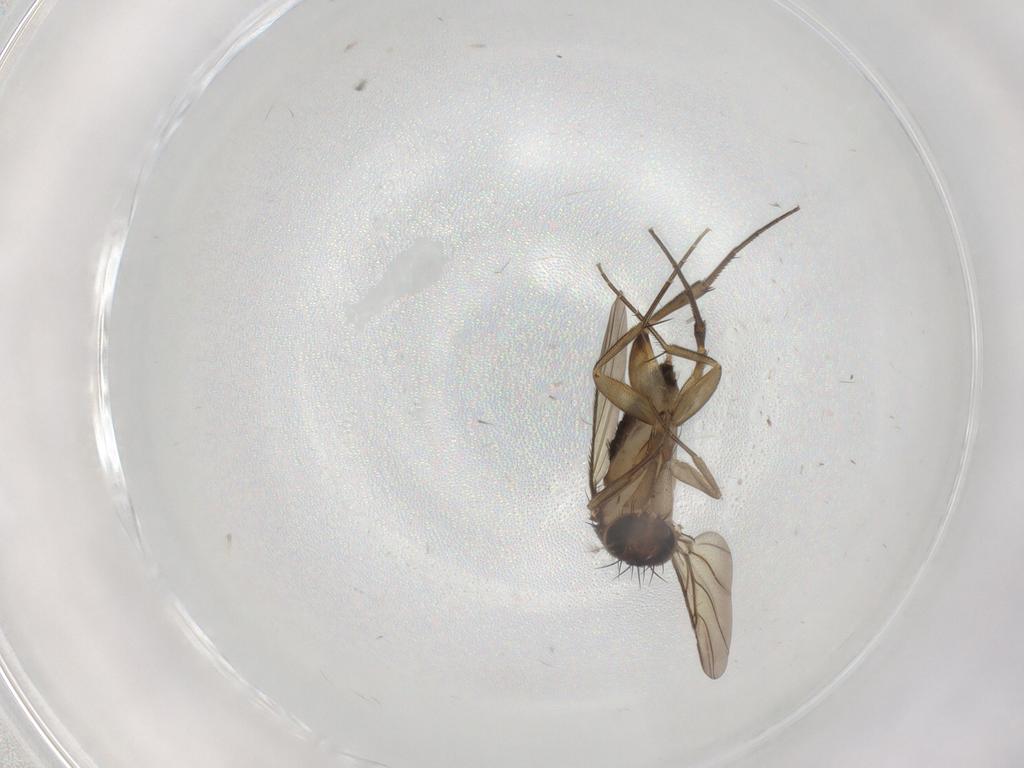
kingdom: Animalia
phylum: Arthropoda
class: Insecta
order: Diptera
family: Phoridae
